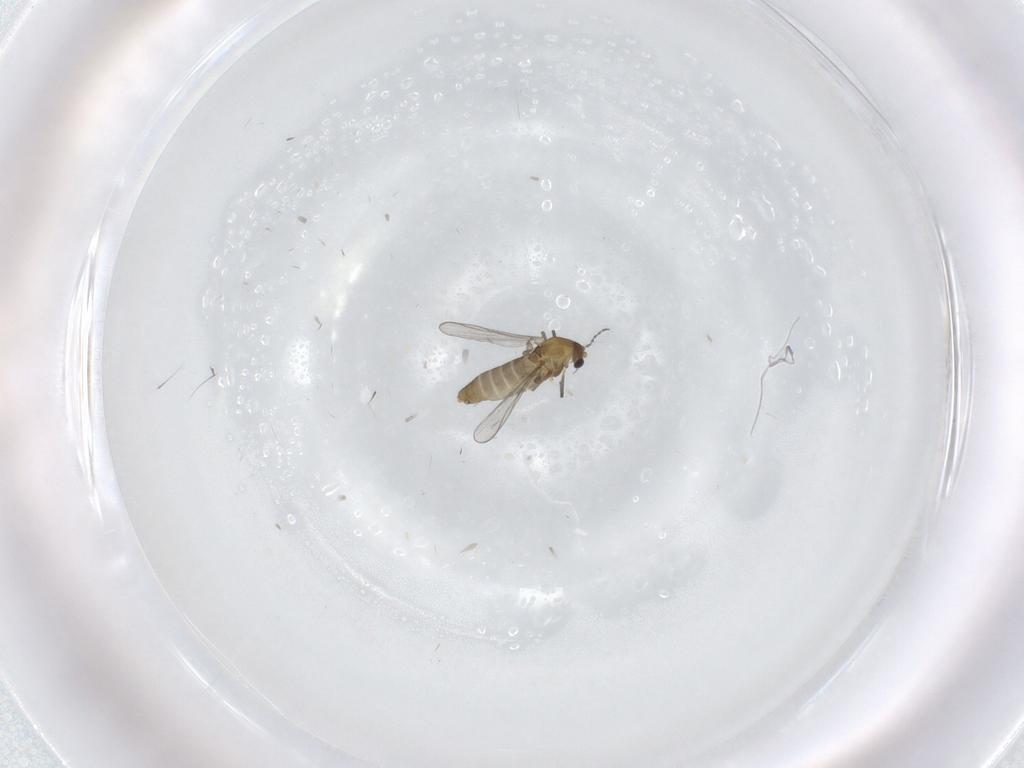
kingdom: Animalia
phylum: Arthropoda
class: Insecta
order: Diptera
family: Chironomidae
